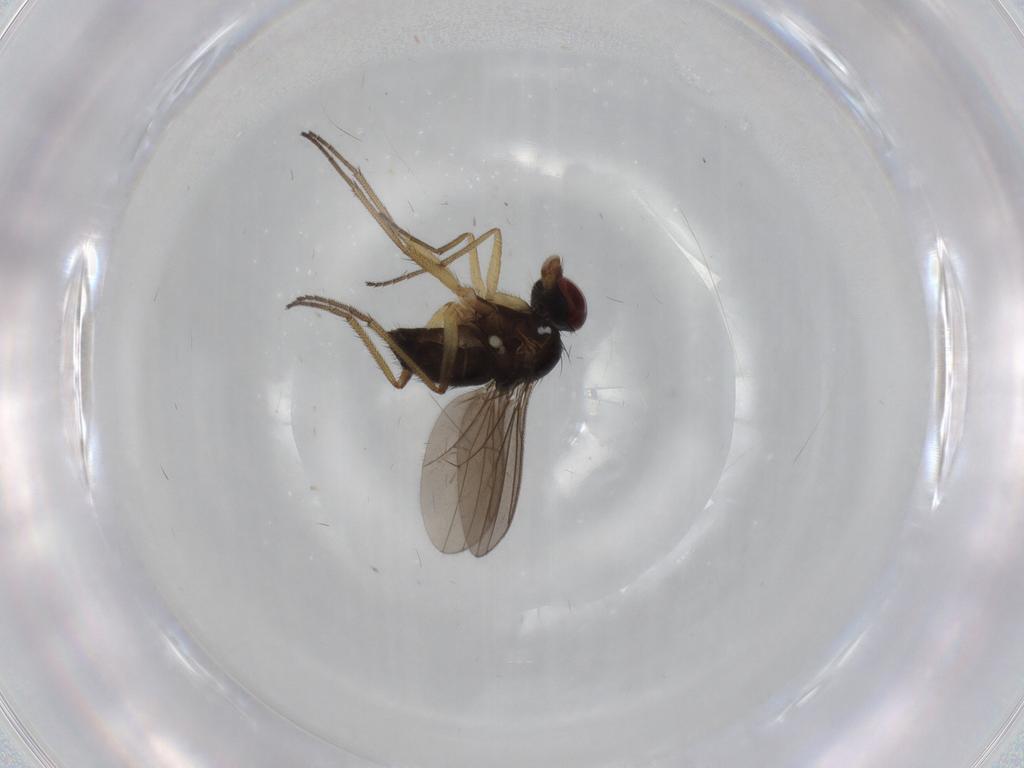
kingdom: Animalia
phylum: Arthropoda
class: Insecta
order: Diptera
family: Dolichopodidae
